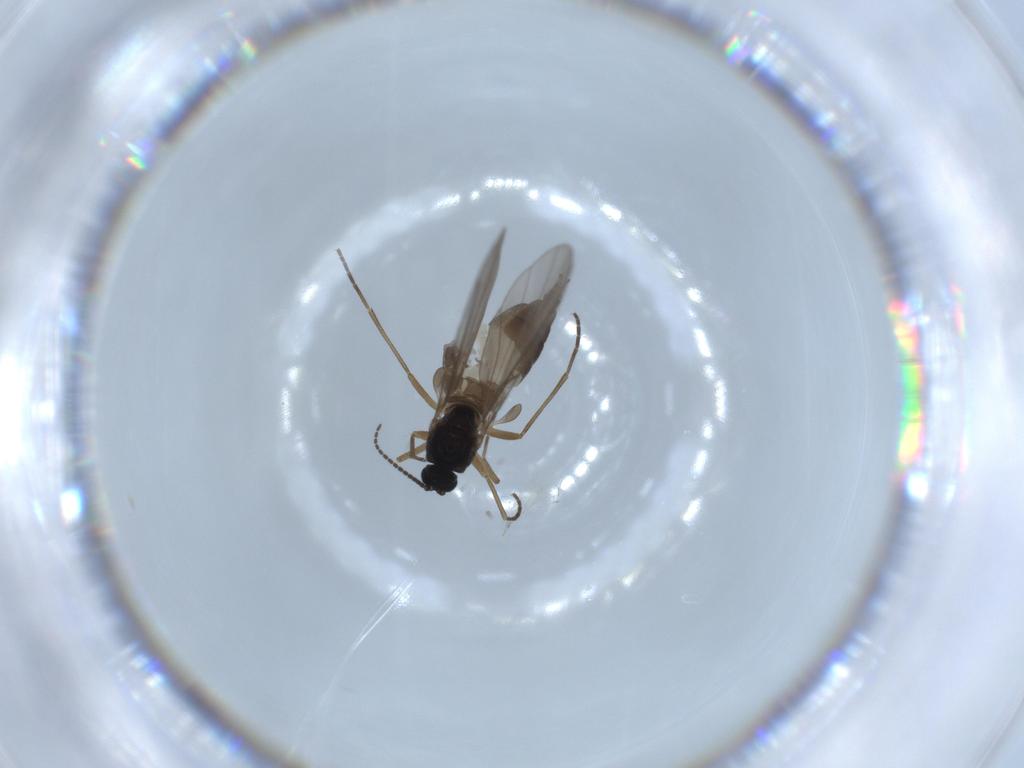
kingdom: Animalia
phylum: Arthropoda
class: Insecta
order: Diptera
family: Sciaridae
